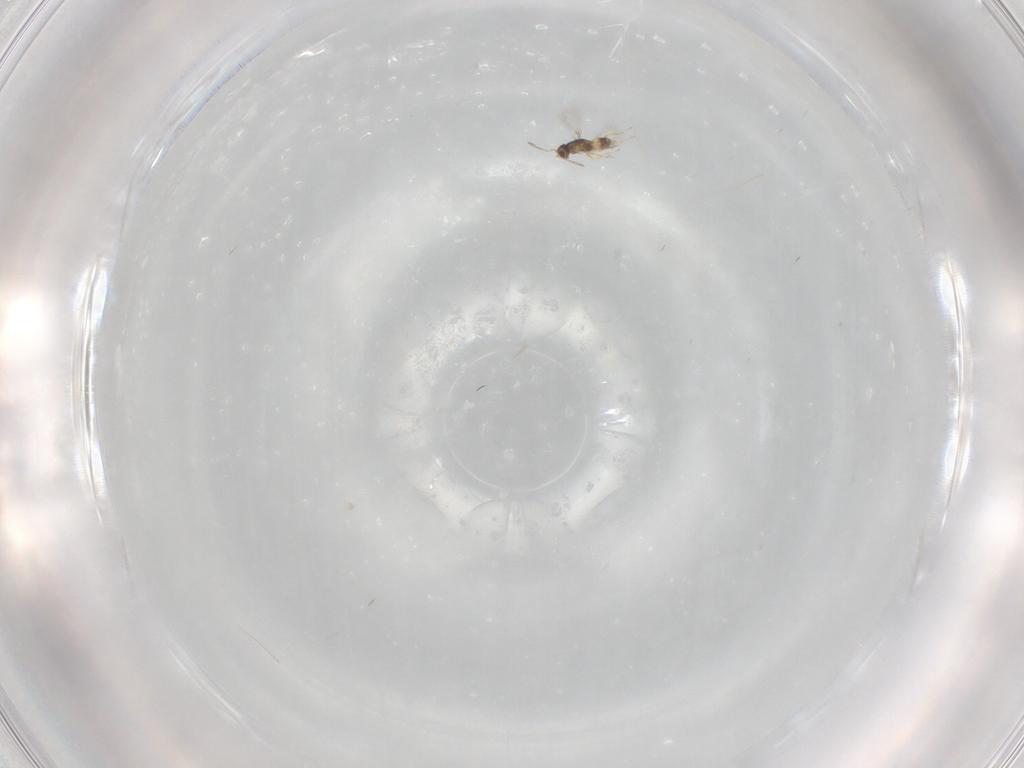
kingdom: Animalia
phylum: Arthropoda
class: Insecta
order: Hymenoptera
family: Mymaridae
